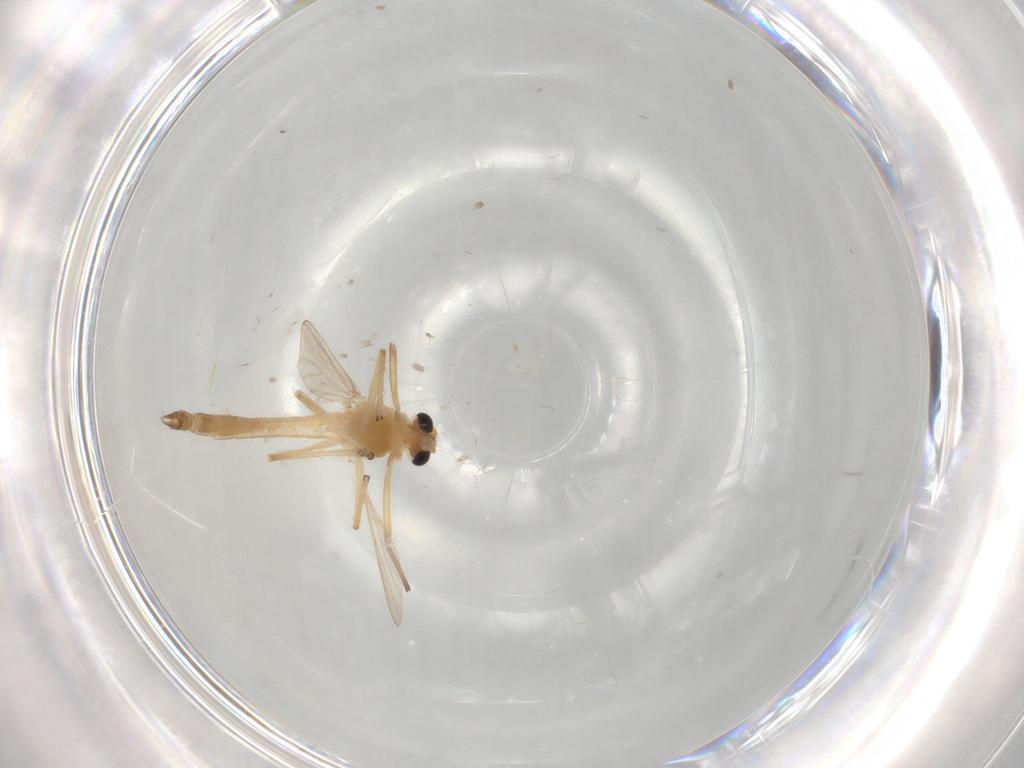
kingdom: Animalia
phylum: Arthropoda
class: Insecta
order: Diptera
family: Chironomidae
